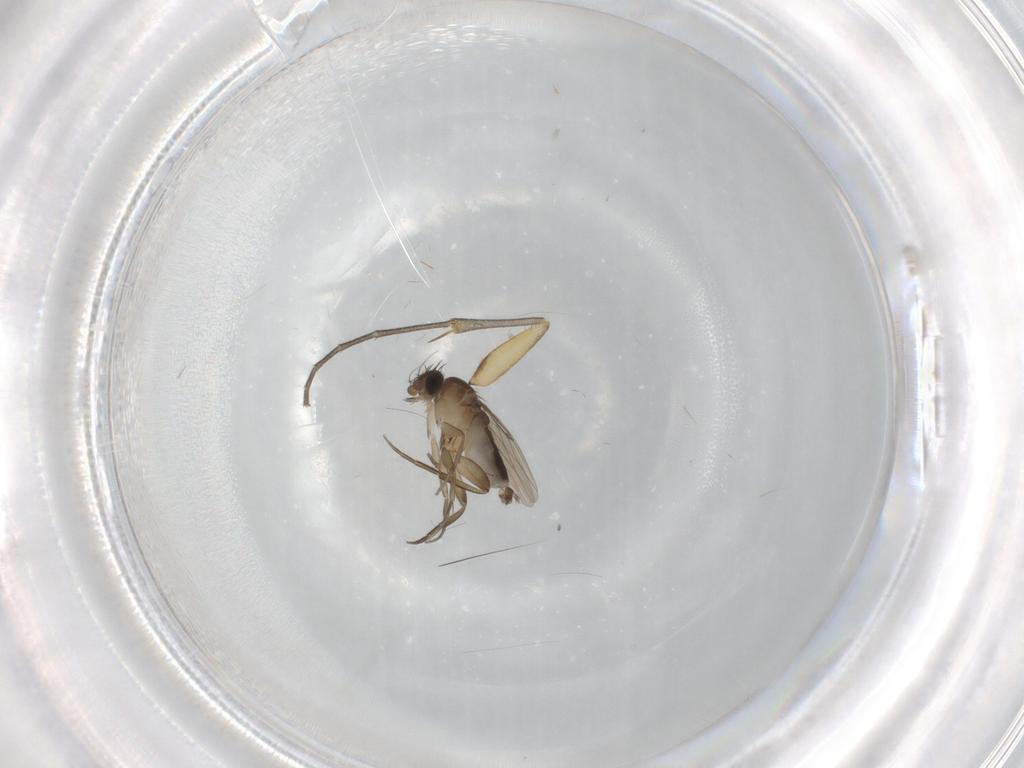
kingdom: Animalia
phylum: Arthropoda
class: Insecta
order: Diptera
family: Mycetophilidae
